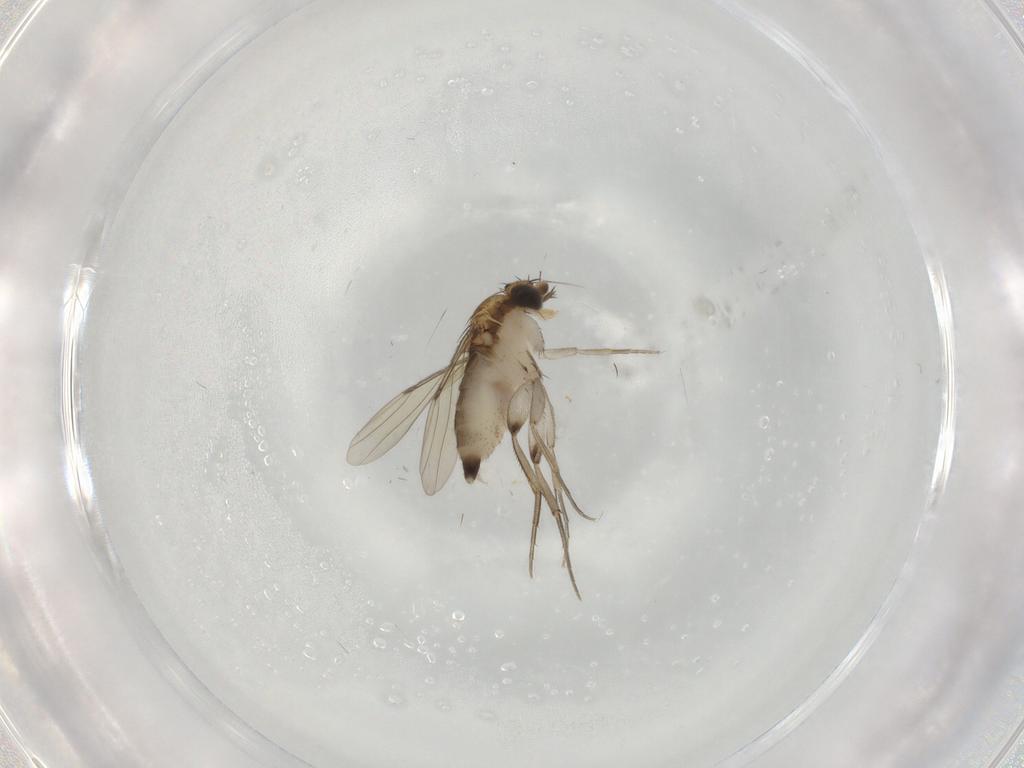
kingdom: Animalia
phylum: Arthropoda
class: Insecta
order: Diptera
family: Phoridae
